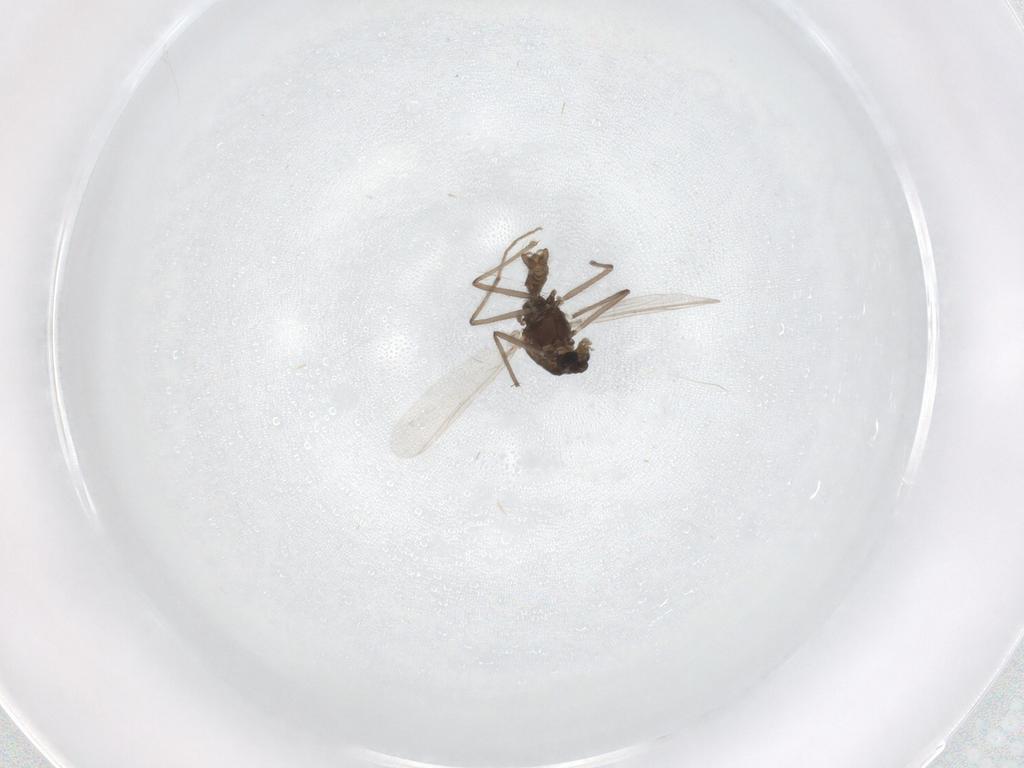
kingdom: Animalia
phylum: Arthropoda
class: Insecta
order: Diptera
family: Chironomidae
